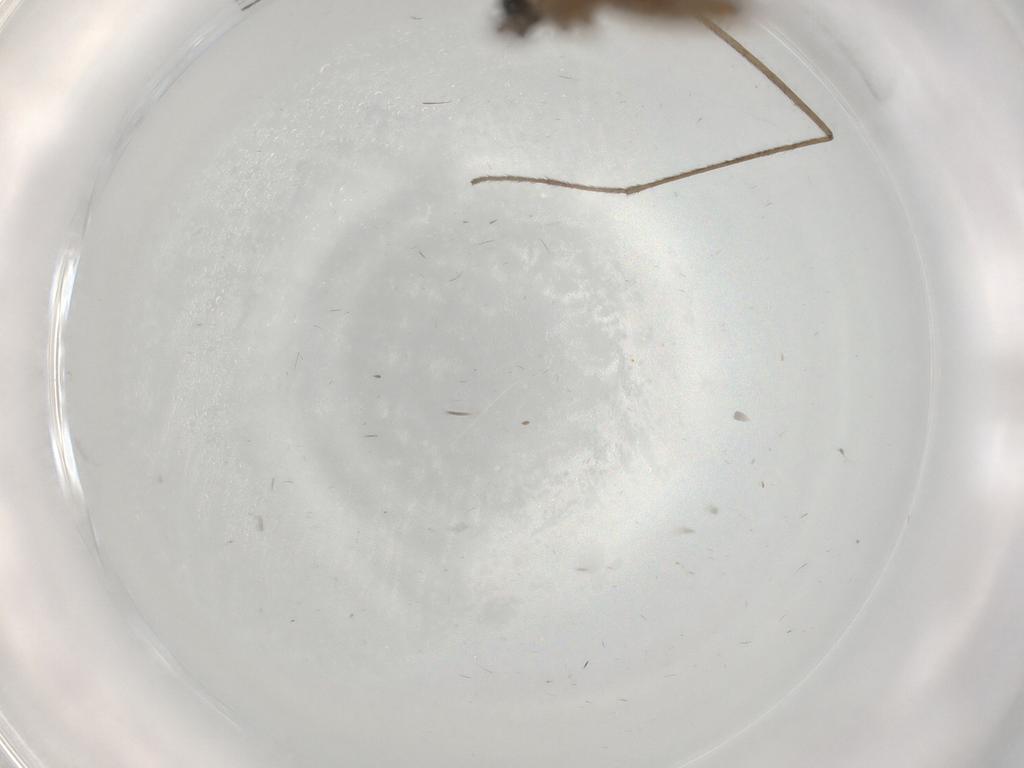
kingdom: Animalia
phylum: Arthropoda
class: Insecta
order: Diptera
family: Limoniidae
